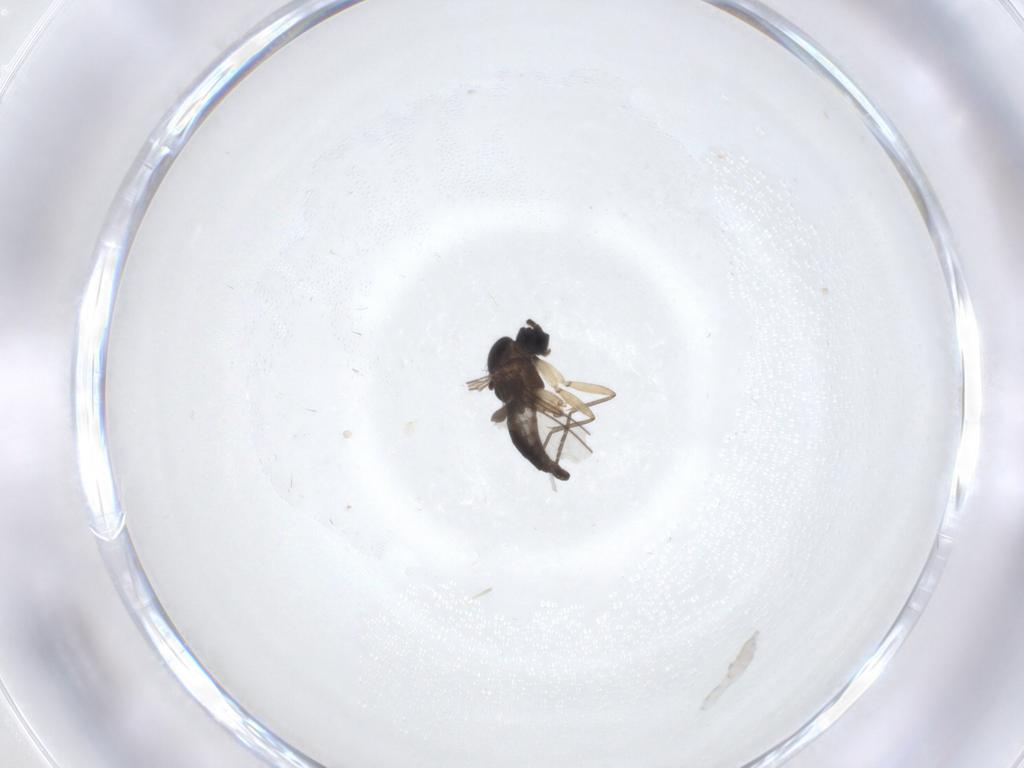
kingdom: Animalia
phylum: Arthropoda
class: Insecta
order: Diptera
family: Sciaridae
